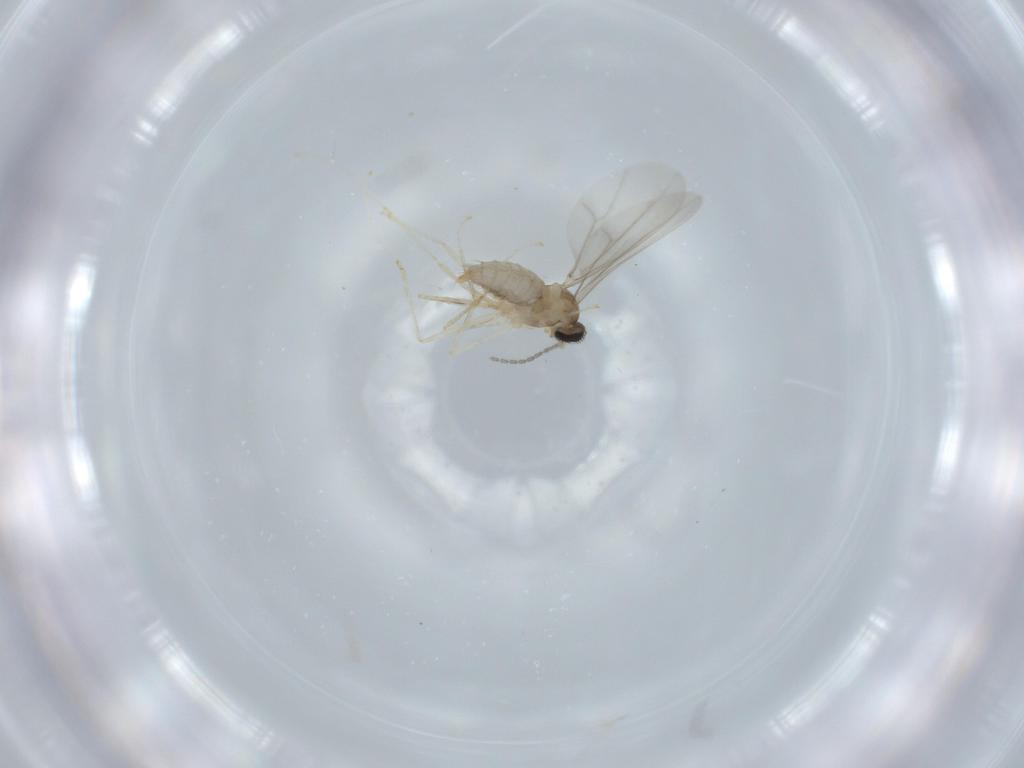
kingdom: Animalia
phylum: Arthropoda
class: Insecta
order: Diptera
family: Cecidomyiidae
